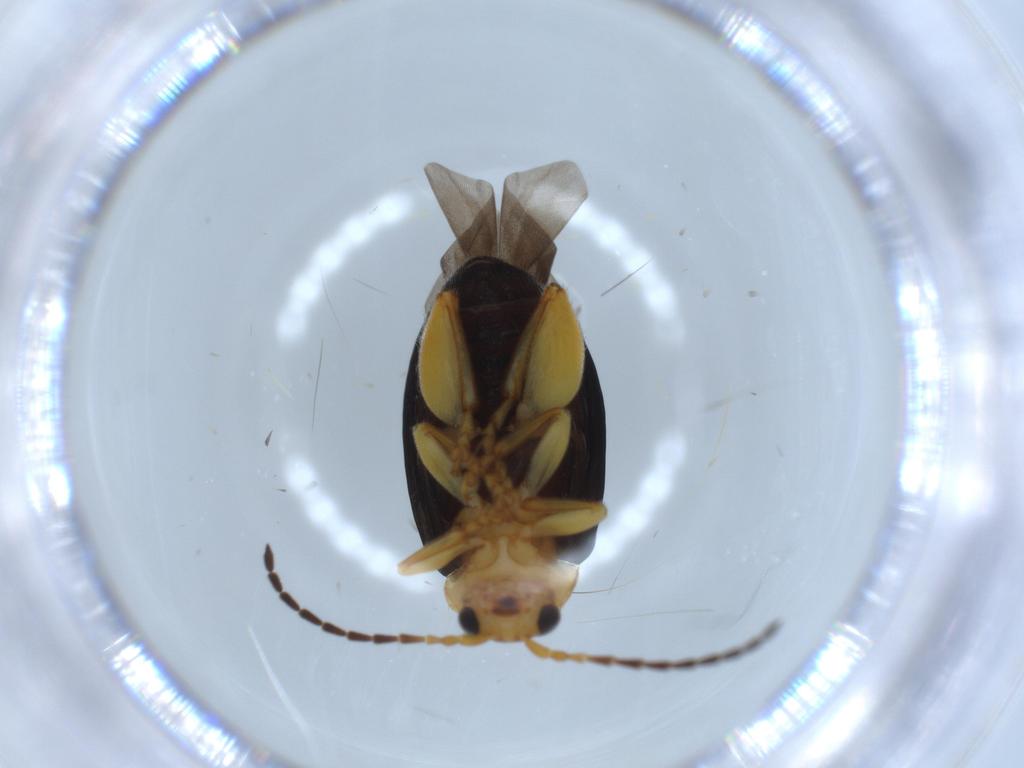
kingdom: Animalia
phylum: Arthropoda
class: Insecta
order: Coleoptera
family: Chrysomelidae
